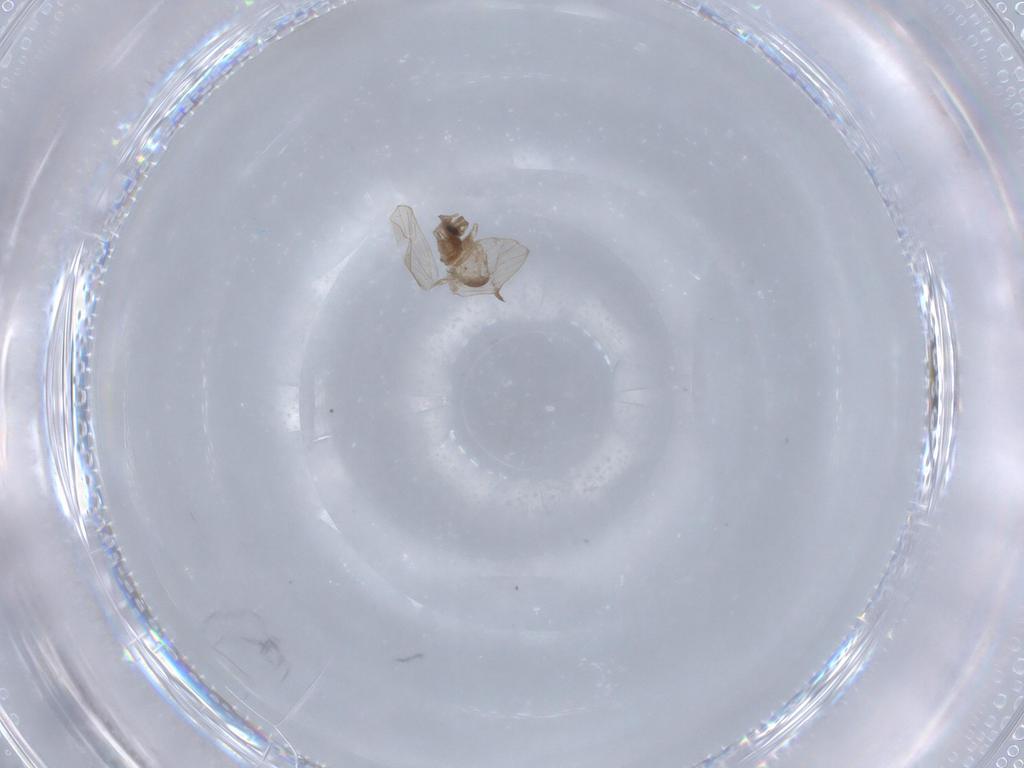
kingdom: Animalia
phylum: Arthropoda
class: Insecta
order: Diptera
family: Psychodidae
